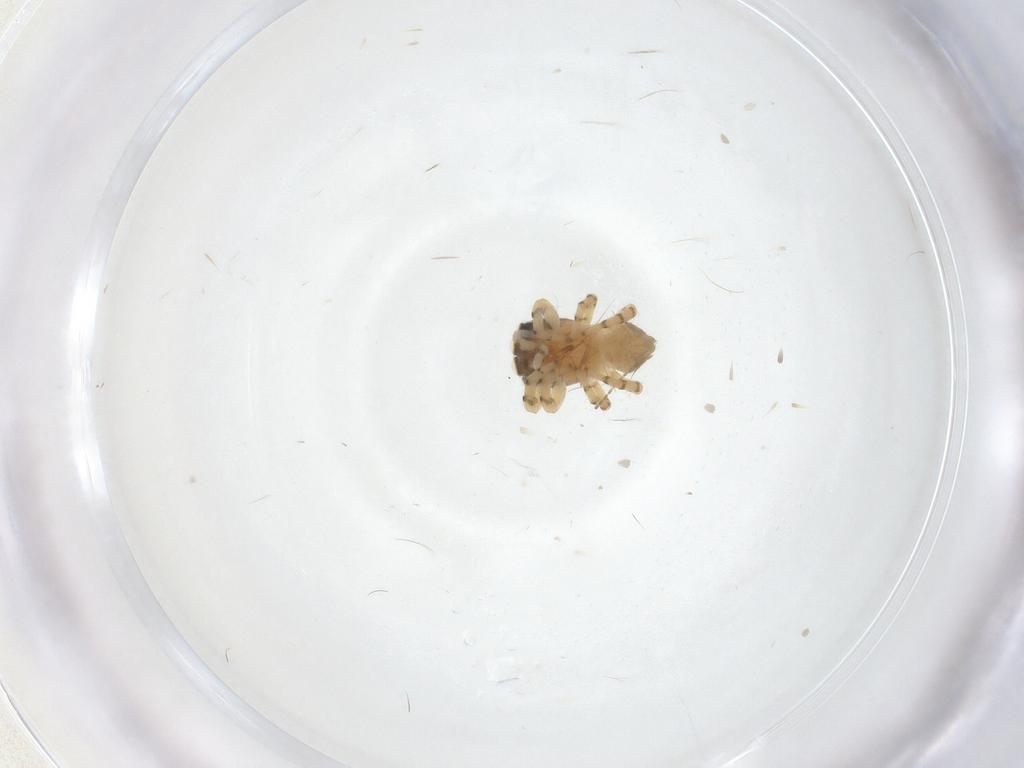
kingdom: Animalia
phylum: Arthropoda
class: Arachnida
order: Araneae
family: Salticidae
